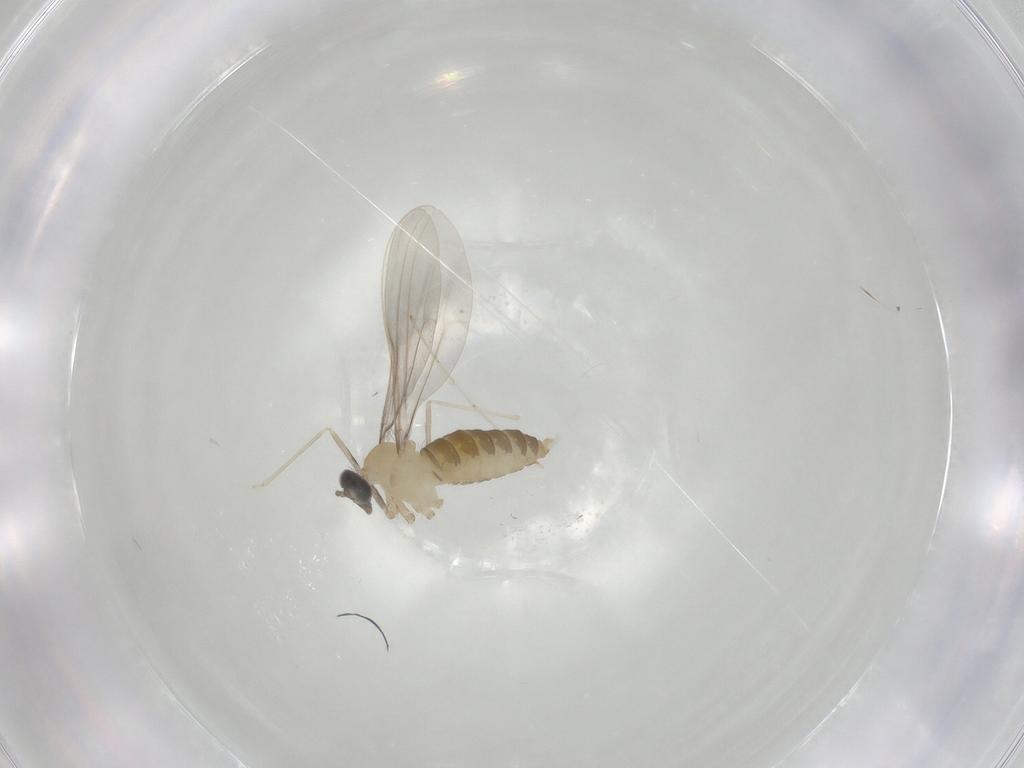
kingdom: Animalia
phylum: Arthropoda
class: Insecta
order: Diptera
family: Cecidomyiidae
